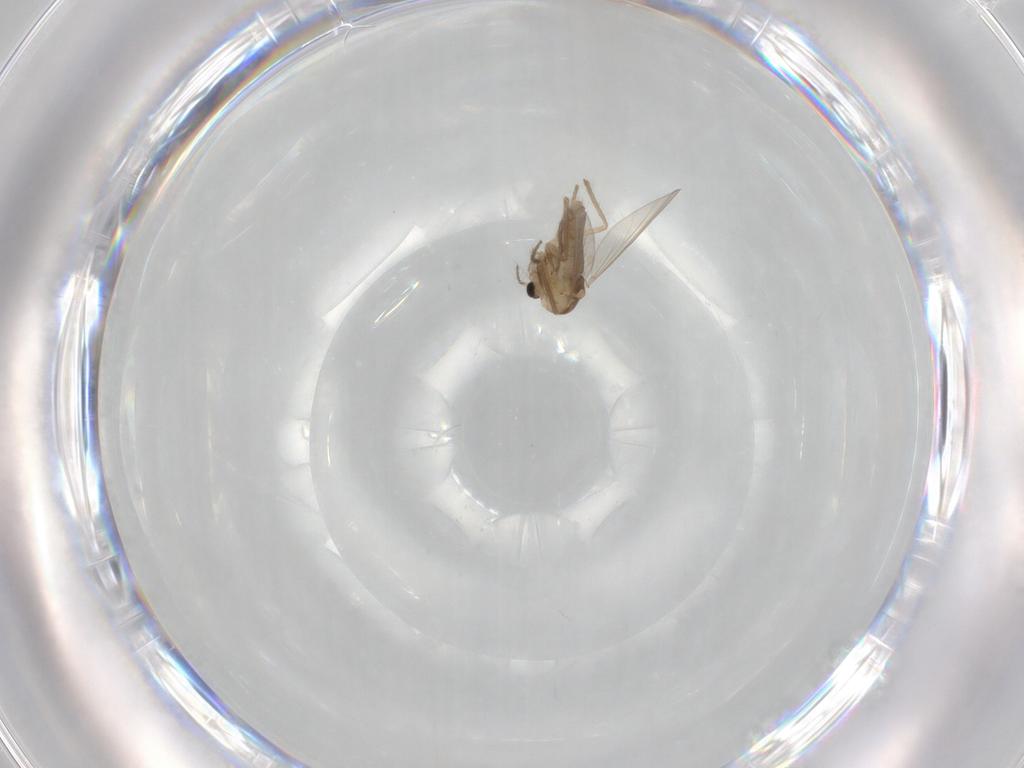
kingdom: Animalia
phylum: Arthropoda
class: Insecta
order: Diptera
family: Chironomidae
